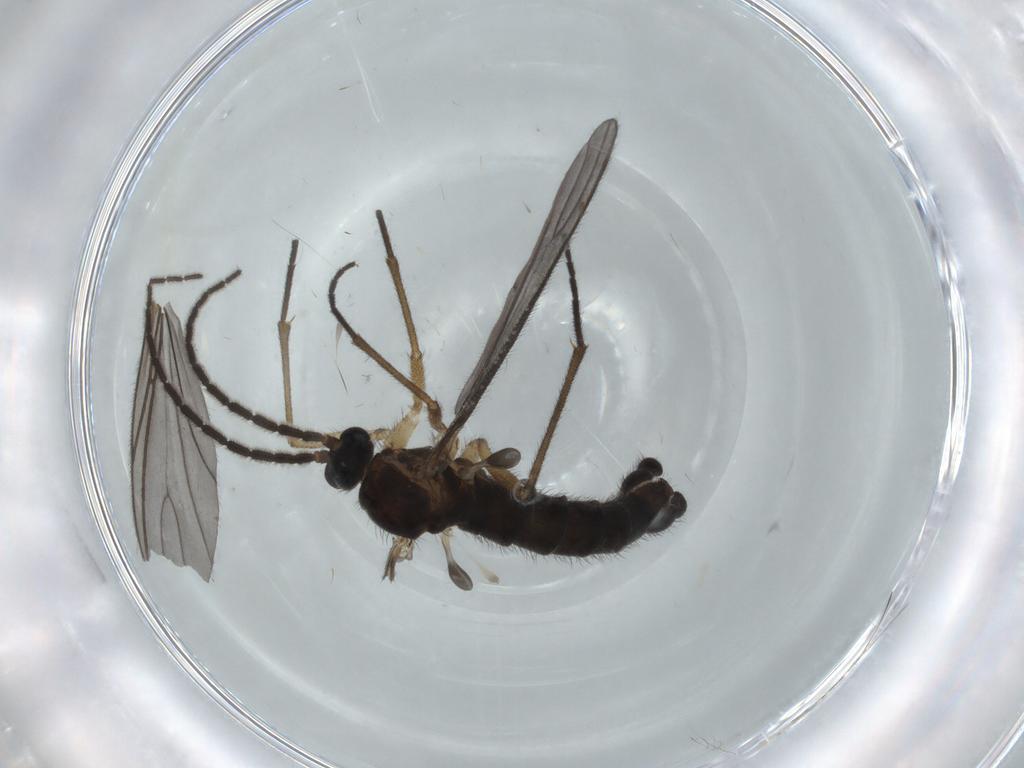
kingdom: Animalia
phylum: Arthropoda
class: Insecta
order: Diptera
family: Sciaridae
